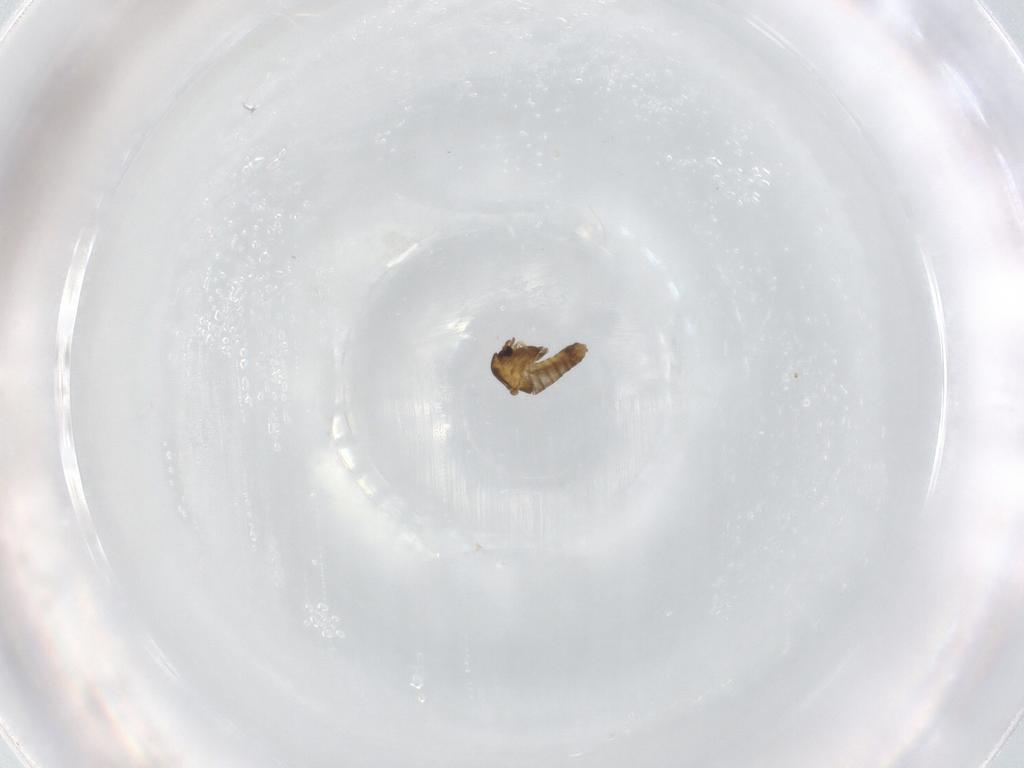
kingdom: Animalia
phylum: Arthropoda
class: Insecta
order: Diptera
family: Chironomidae
